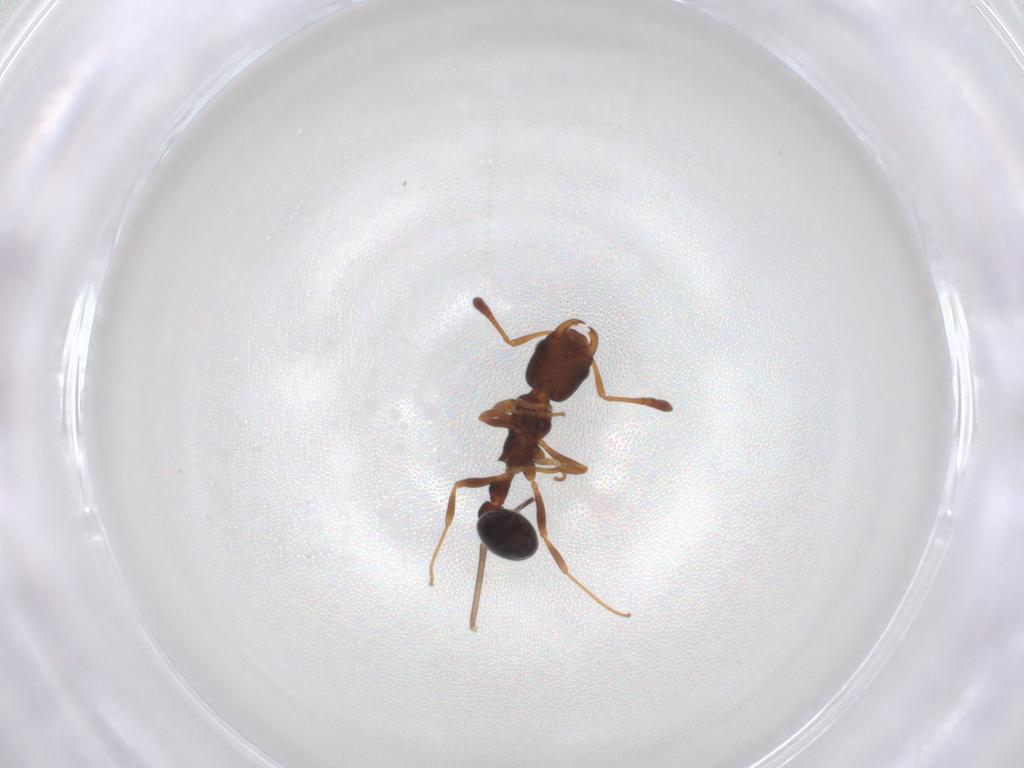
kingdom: Animalia
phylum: Arthropoda
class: Insecta
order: Hymenoptera
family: Formicidae
